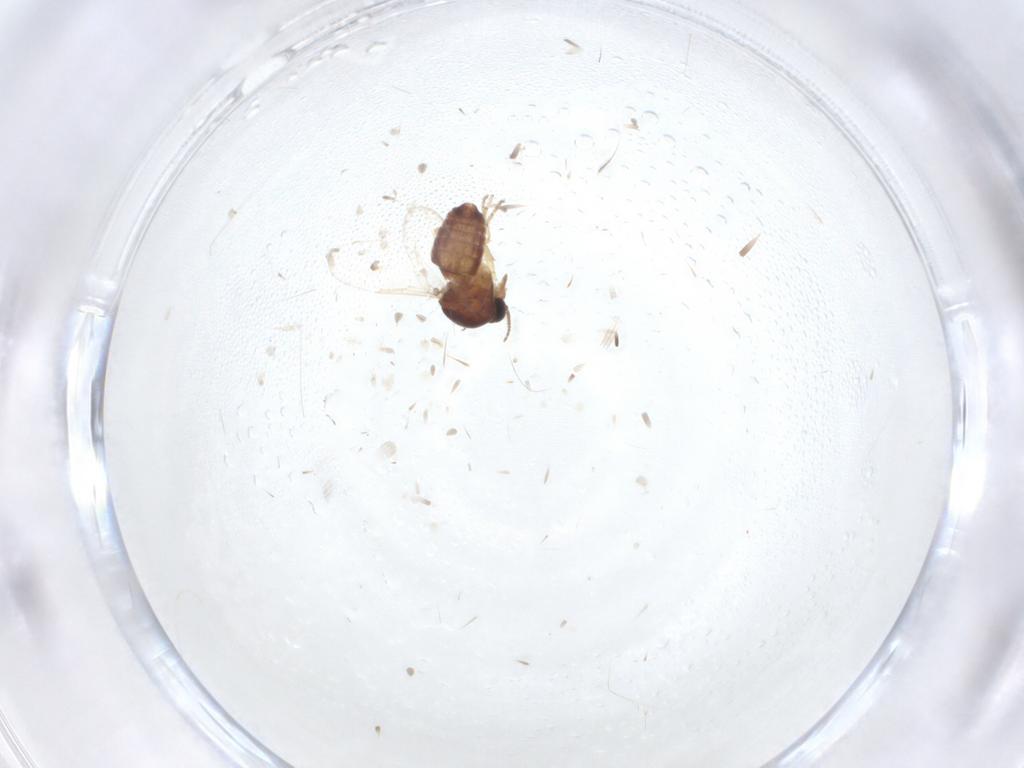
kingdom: Animalia
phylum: Arthropoda
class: Insecta
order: Diptera
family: Ceratopogonidae
